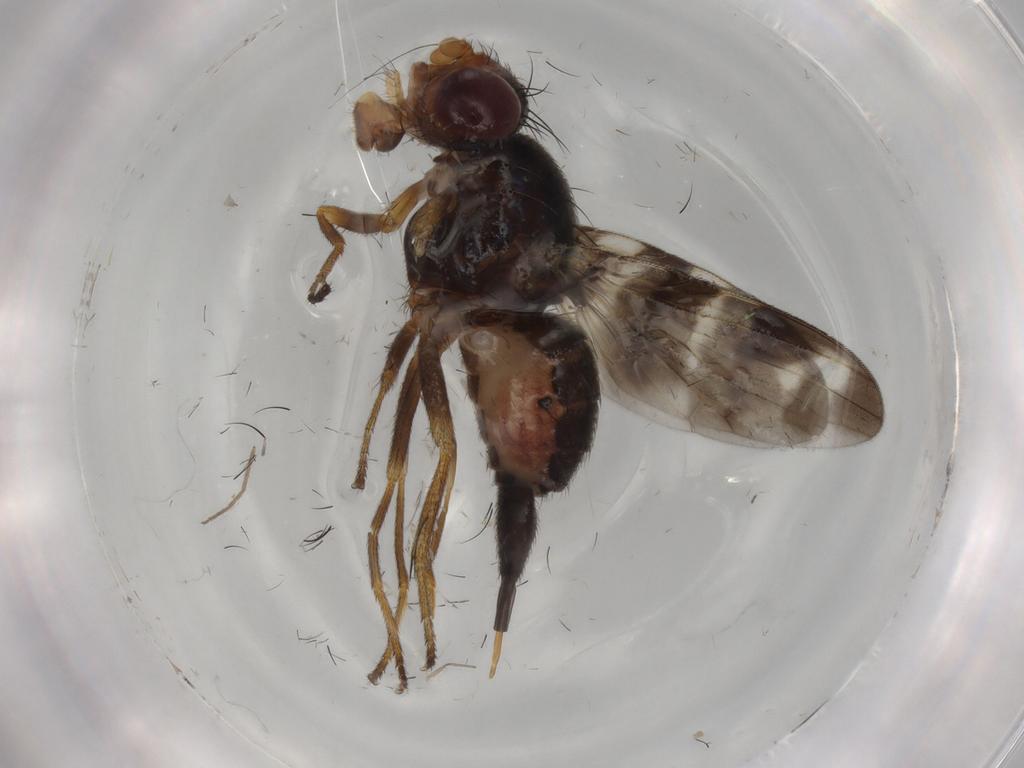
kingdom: Animalia
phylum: Arthropoda
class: Insecta
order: Diptera
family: Ulidiidae
